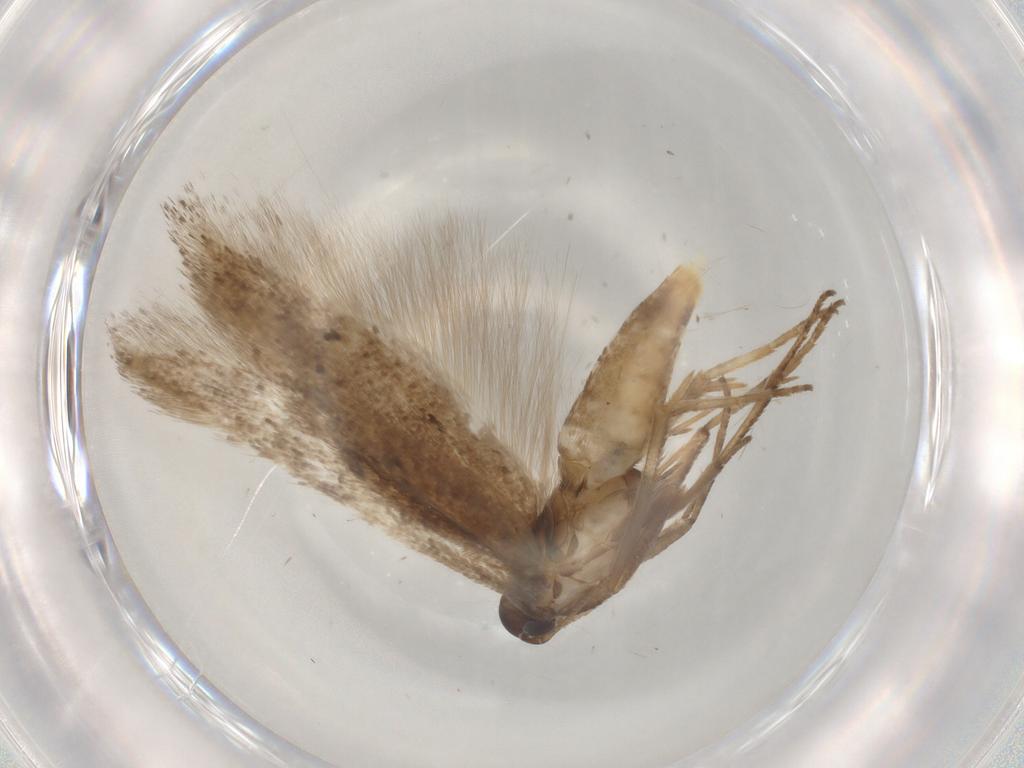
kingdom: Animalia
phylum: Arthropoda
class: Insecta
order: Lepidoptera
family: Gelechiidae
